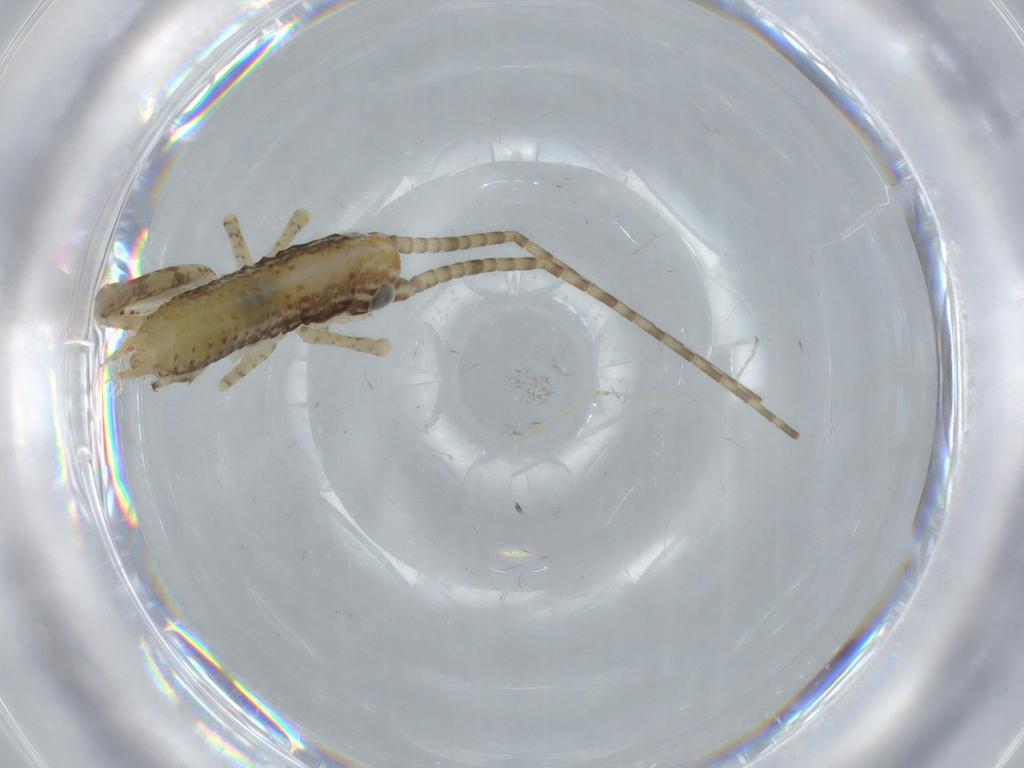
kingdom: Animalia
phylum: Arthropoda
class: Insecta
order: Orthoptera
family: Gryllidae
